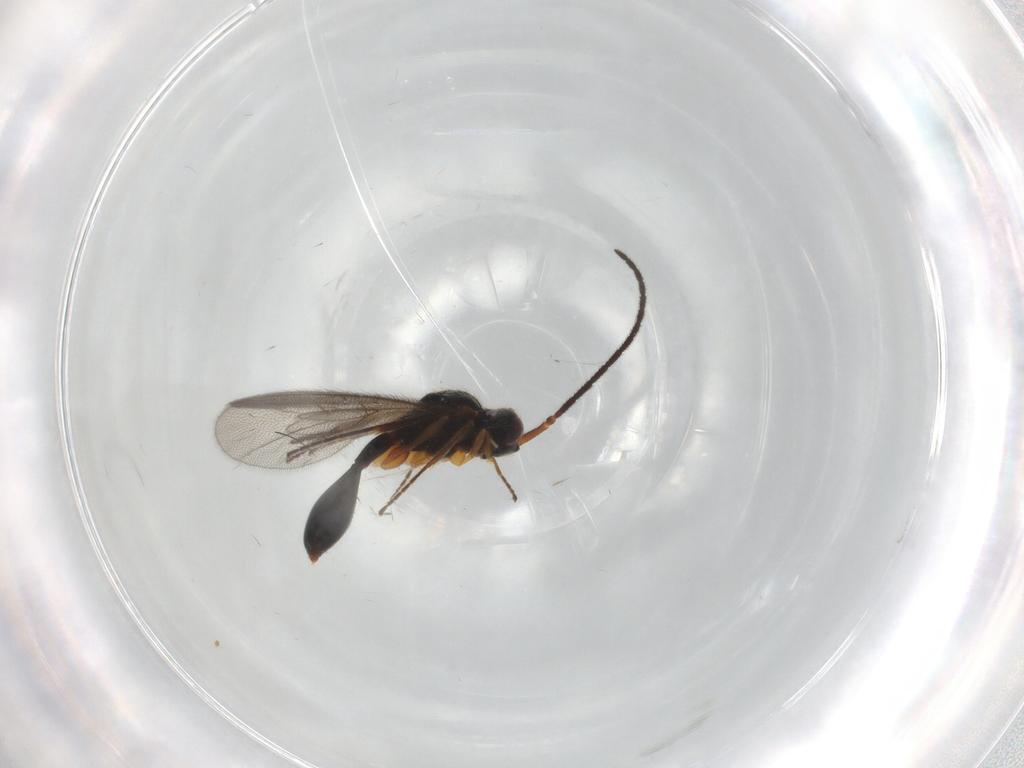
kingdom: Animalia
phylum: Arthropoda
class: Insecta
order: Hymenoptera
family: Diapriidae
